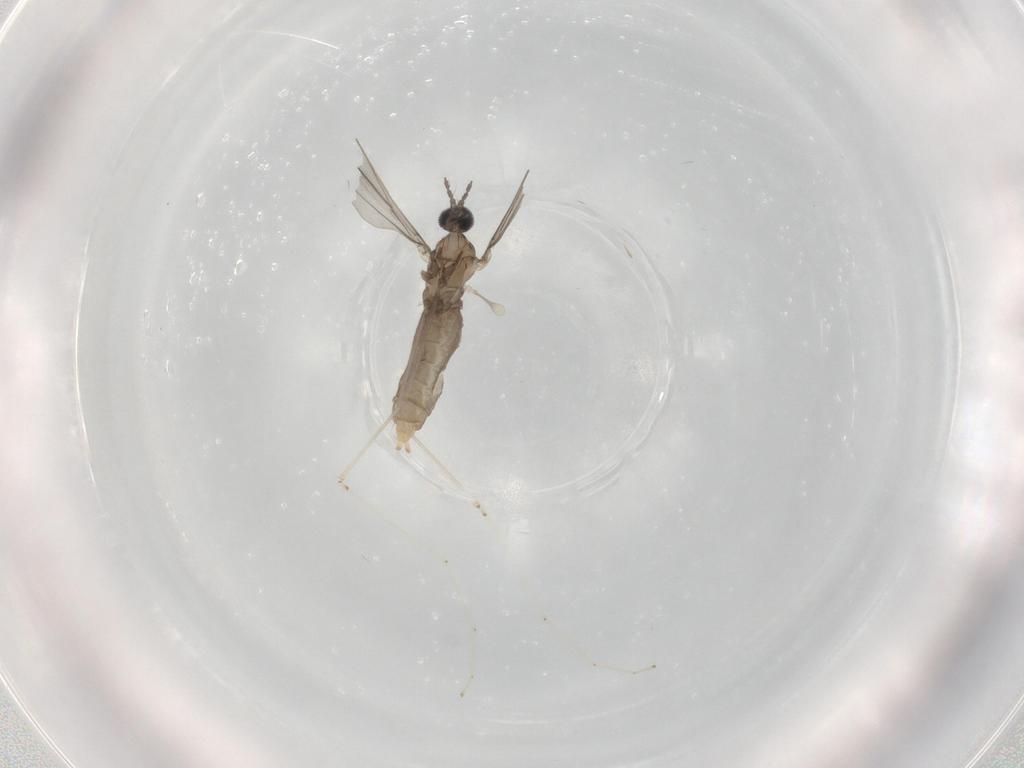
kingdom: Animalia
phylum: Arthropoda
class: Insecta
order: Diptera
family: Cecidomyiidae
